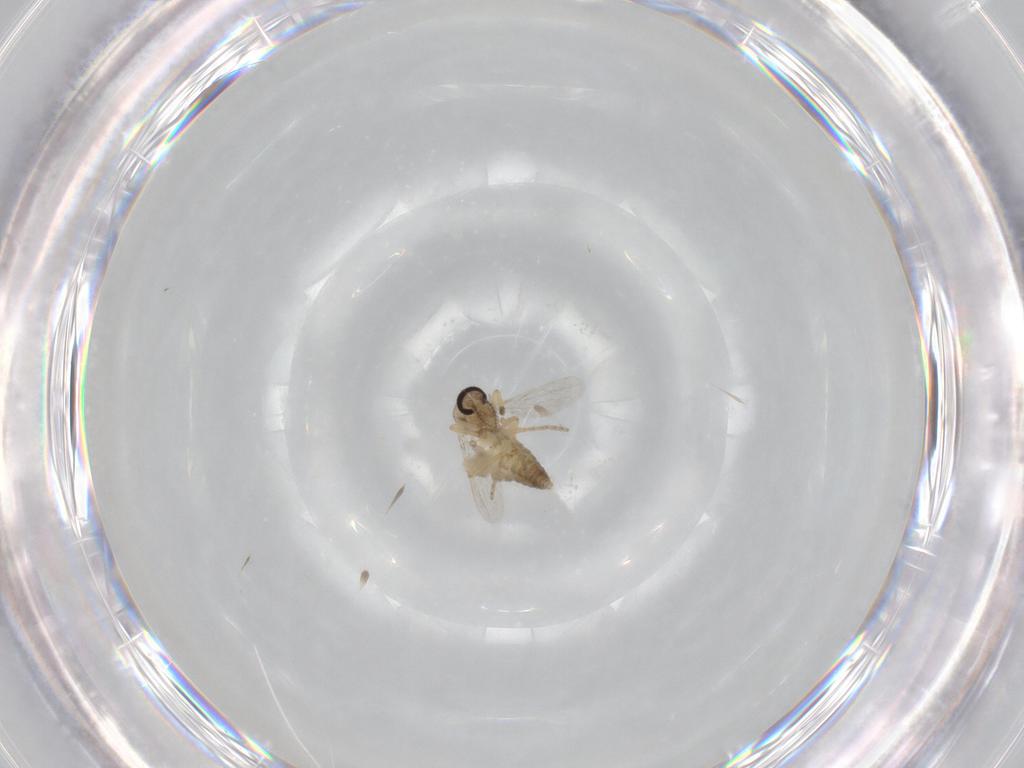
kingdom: Animalia
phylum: Arthropoda
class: Insecta
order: Diptera
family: Ceratopogonidae
